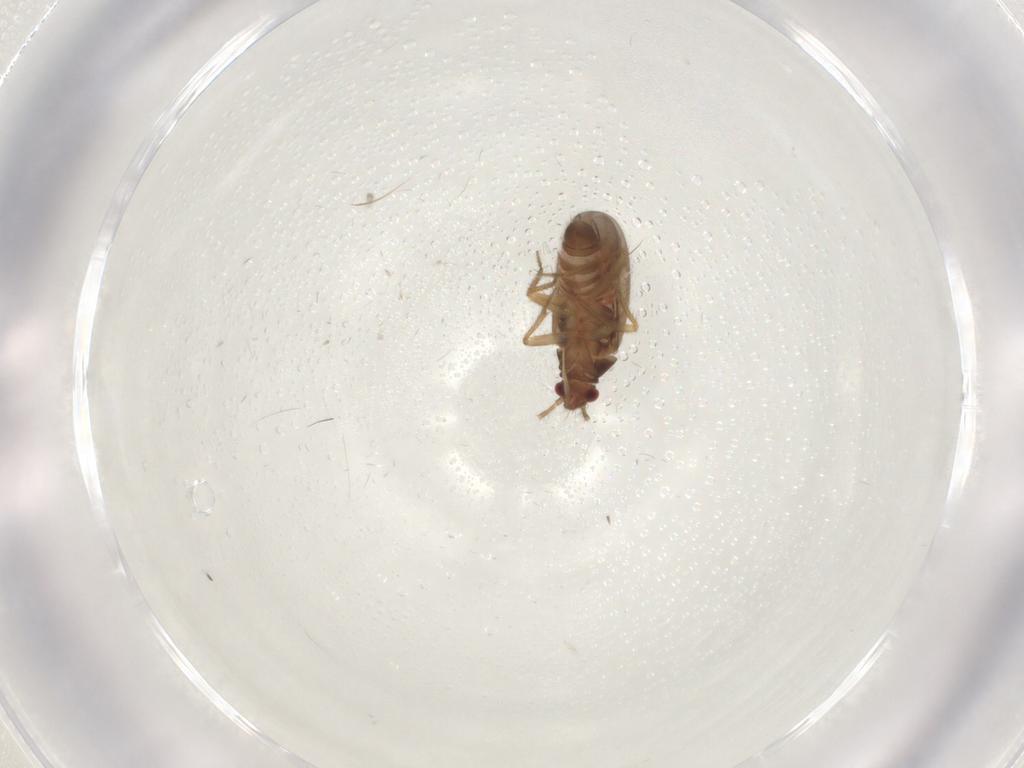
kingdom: Animalia
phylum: Arthropoda
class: Insecta
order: Hemiptera
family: Ceratocombidae
